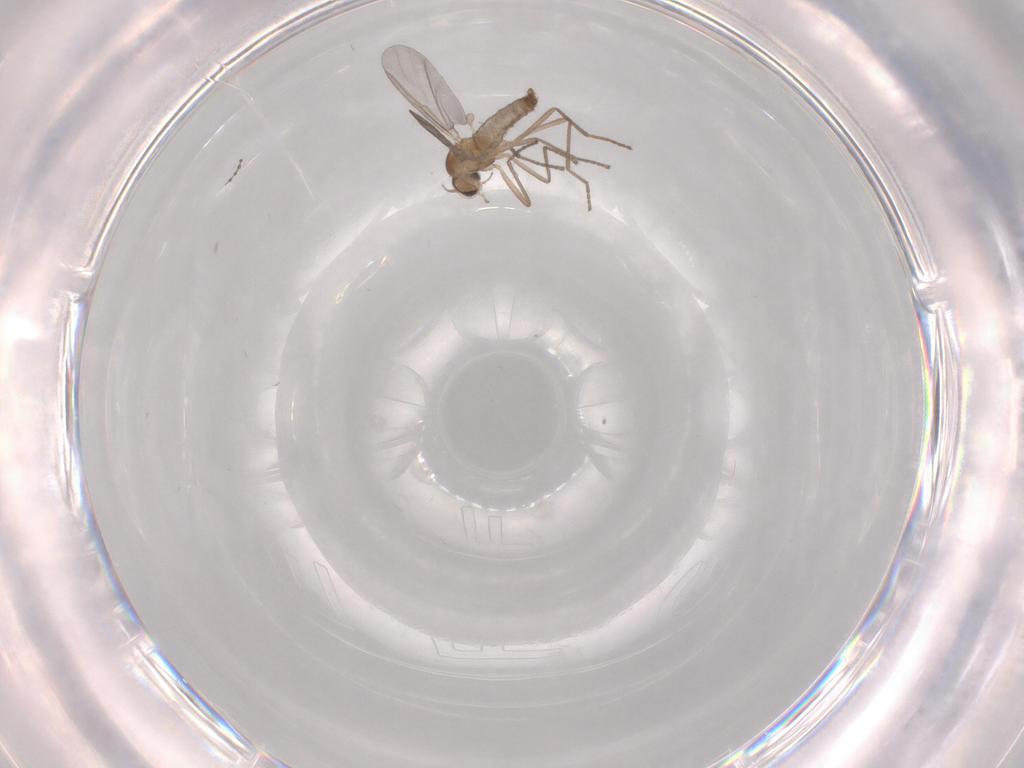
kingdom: Animalia
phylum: Arthropoda
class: Insecta
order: Diptera
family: Cecidomyiidae
